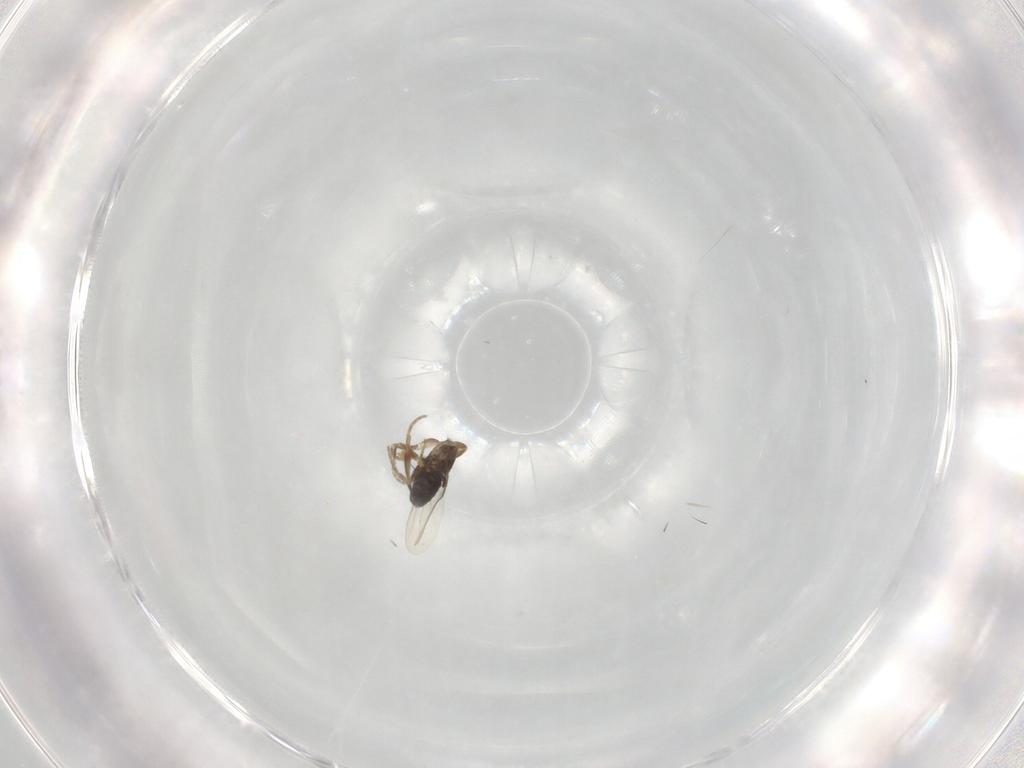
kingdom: Animalia
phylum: Arthropoda
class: Insecta
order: Diptera
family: Phoridae
